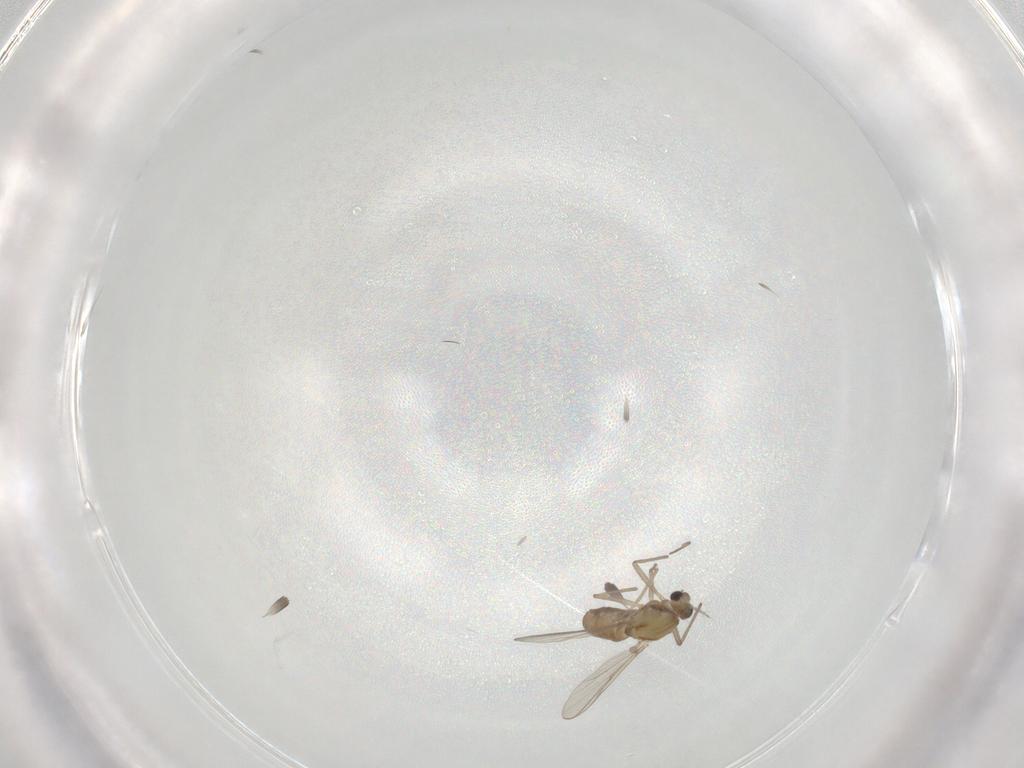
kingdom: Animalia
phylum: Arthropoda
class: Insecta
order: Diptera
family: Chironomidae
